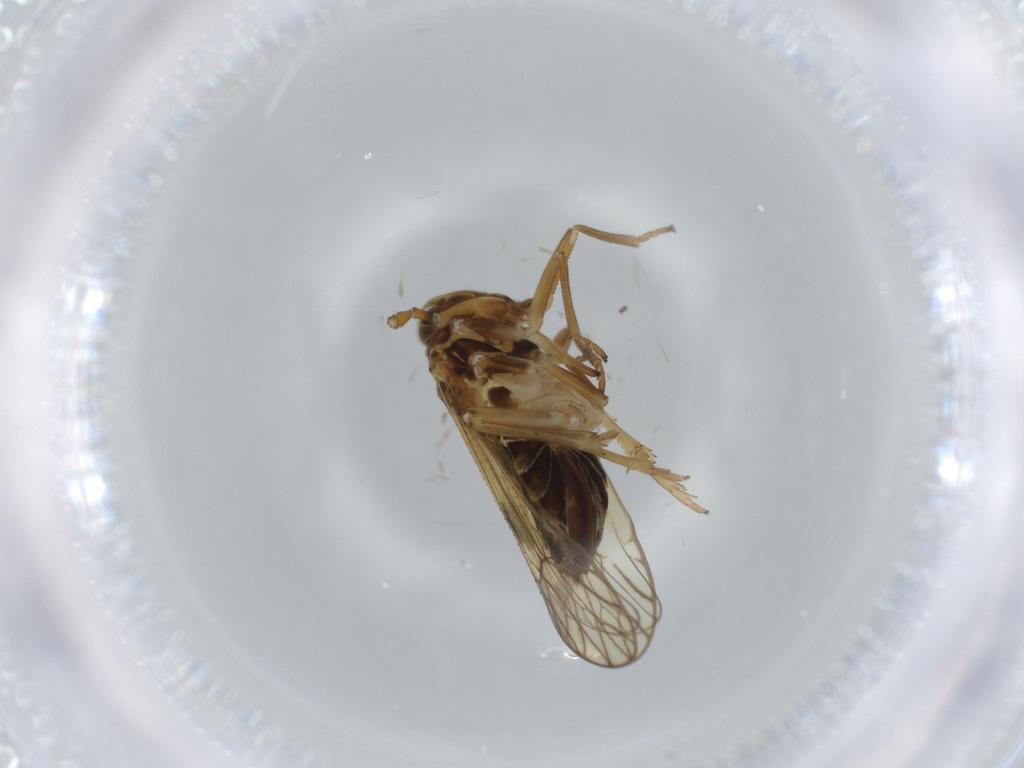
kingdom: Animalia
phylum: Arthropoda
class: Insecta
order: Hemiptera
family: Delphacidae
